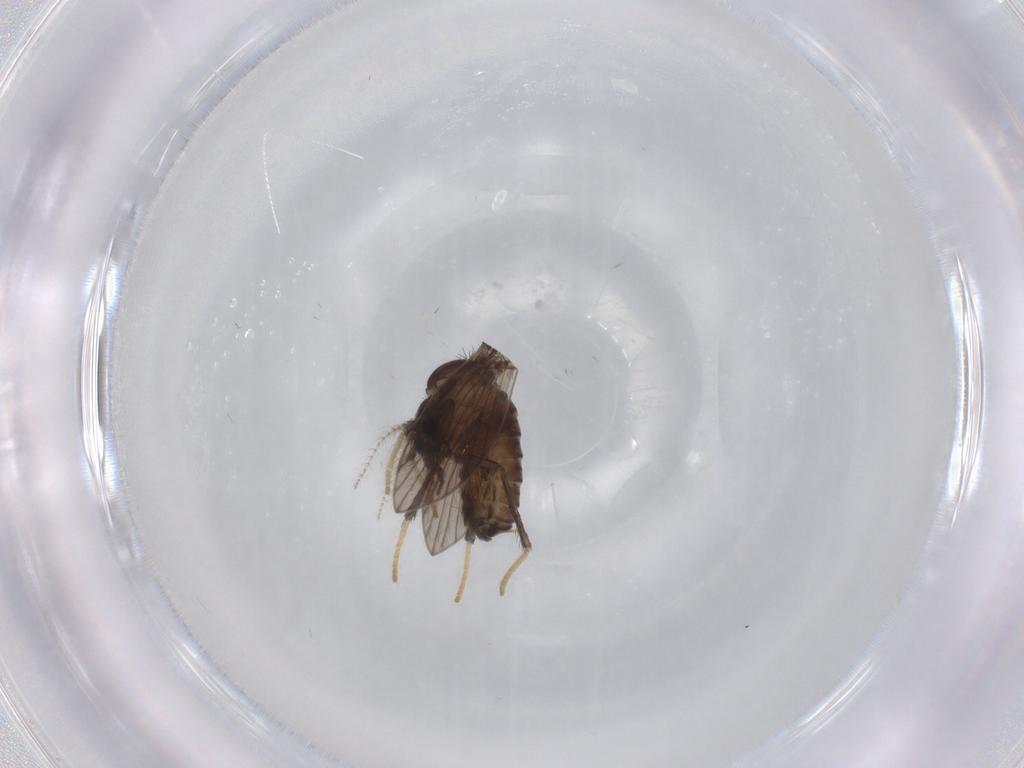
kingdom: Animalia
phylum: Arthropoda
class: Insecta
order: Diptera
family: Psychodidae
